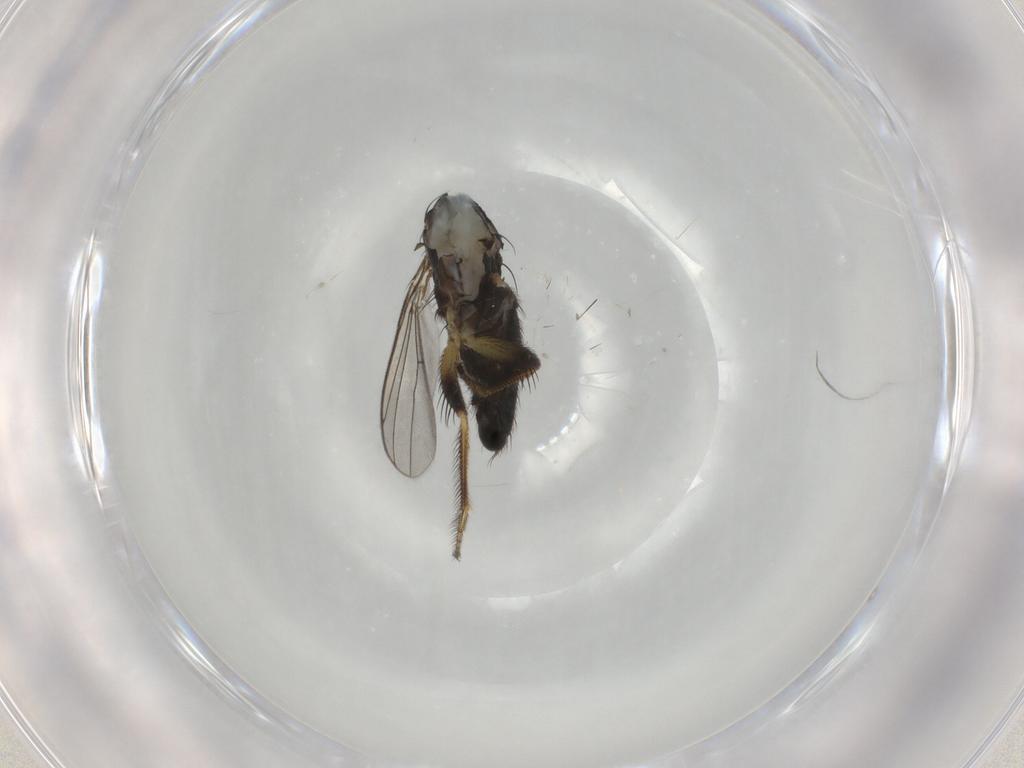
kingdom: Animalia
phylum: Arthropoda
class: Insecta
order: Diptera
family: Dolichopodidae
